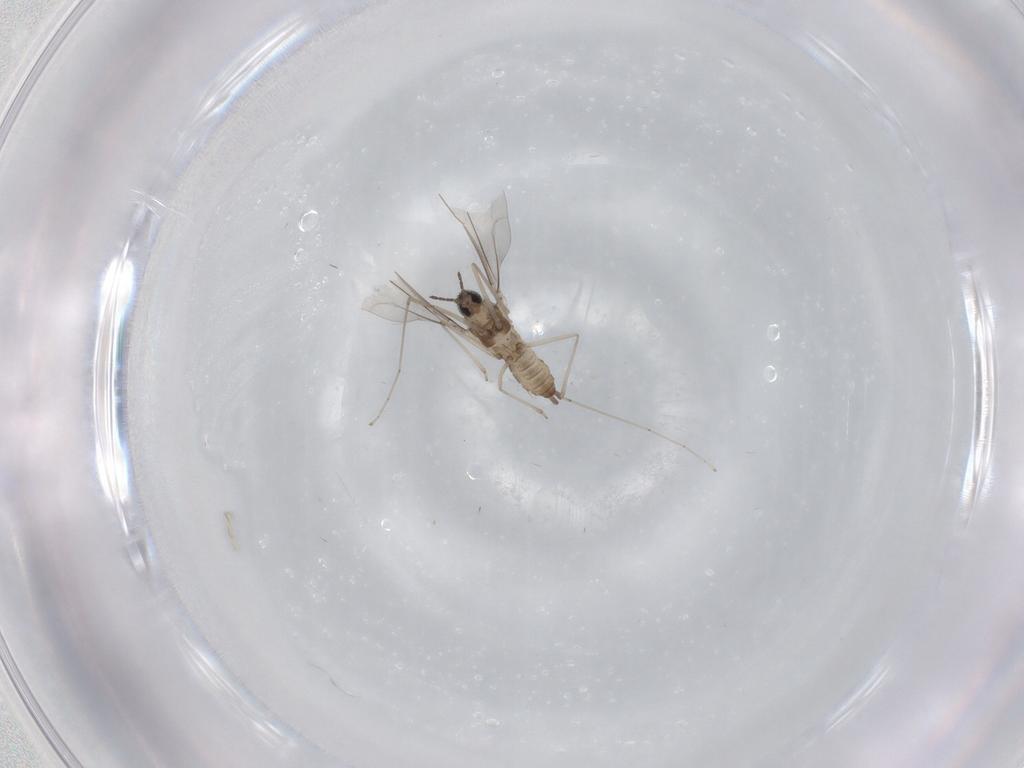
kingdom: Animalia
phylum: Arthropoda
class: Insecta
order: Diptera
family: Cecidomyiidae
